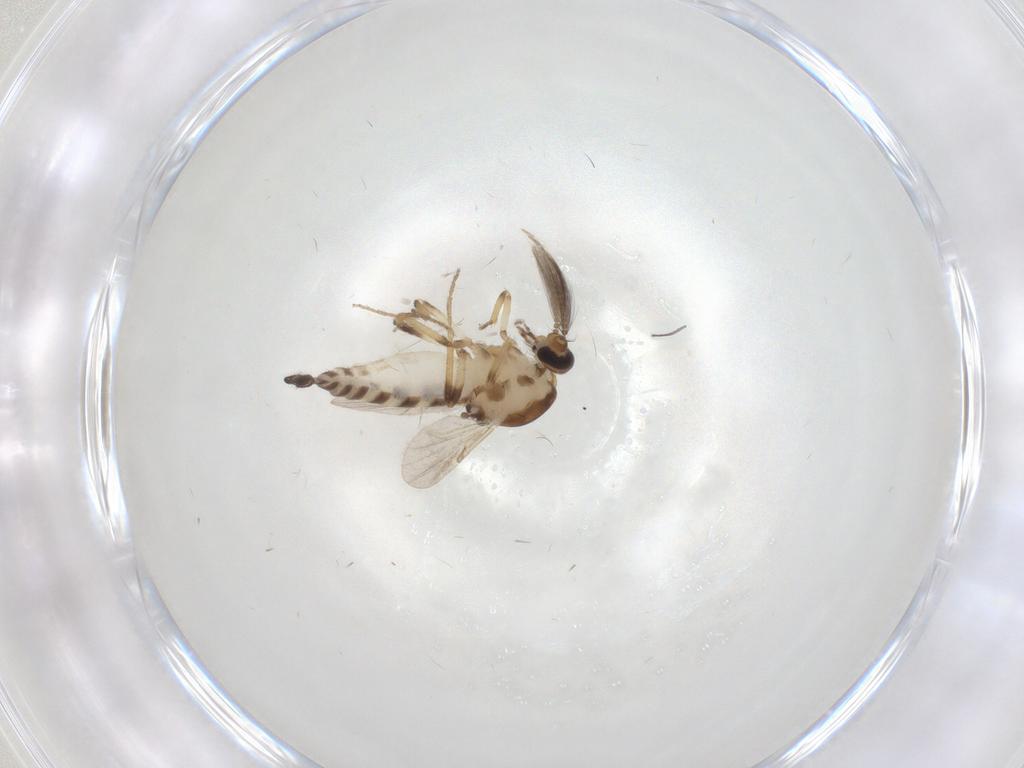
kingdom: Animalia
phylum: Arthropoda
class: Insecta
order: Diptera
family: Ceratopogonidae
